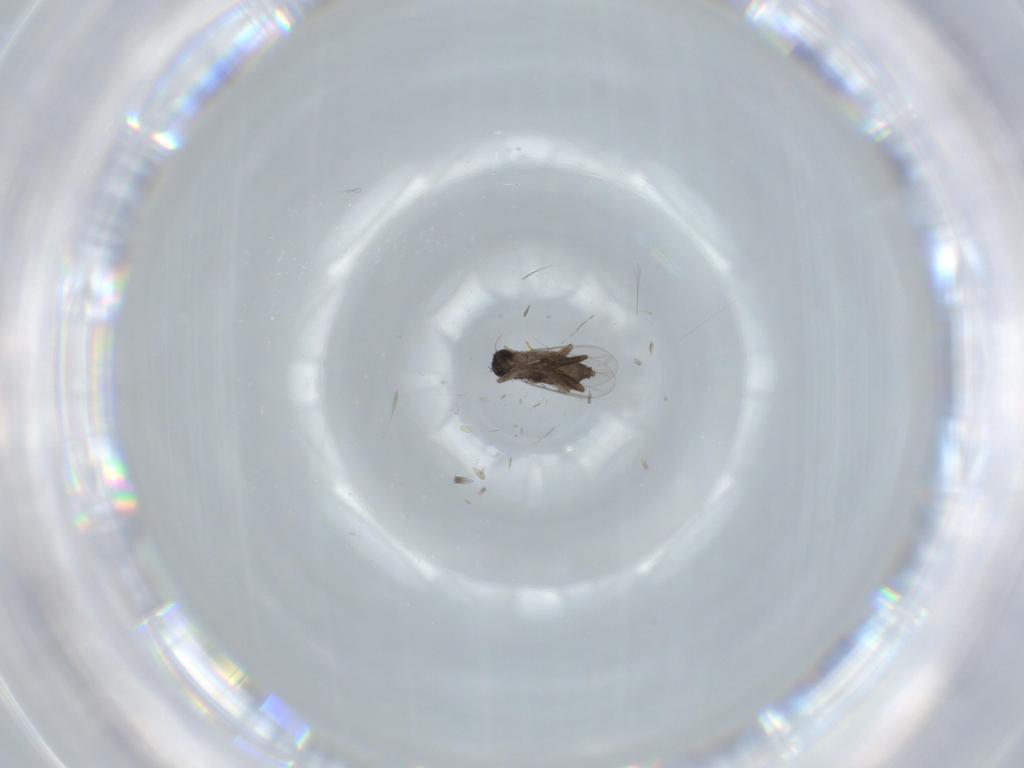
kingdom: Animalia
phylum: Arthropoda
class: Insecta
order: Diptera
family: Phoridae
